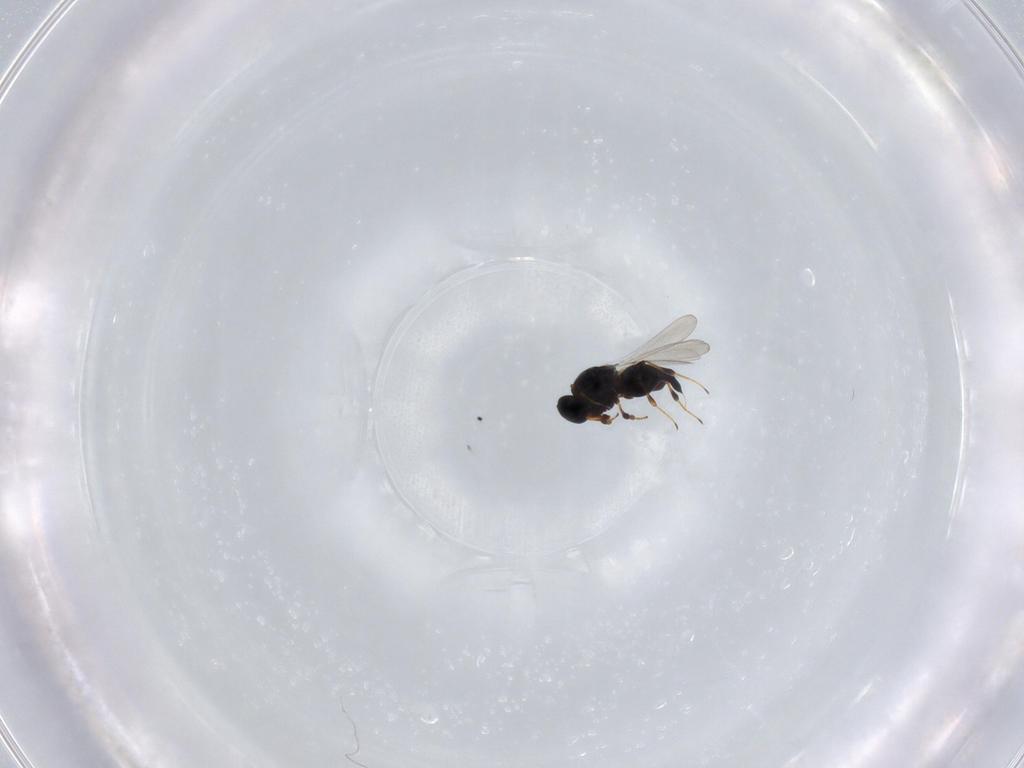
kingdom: Animalia
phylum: Arthropoda
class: Insecta
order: Hymenoptera
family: Platygastridae
